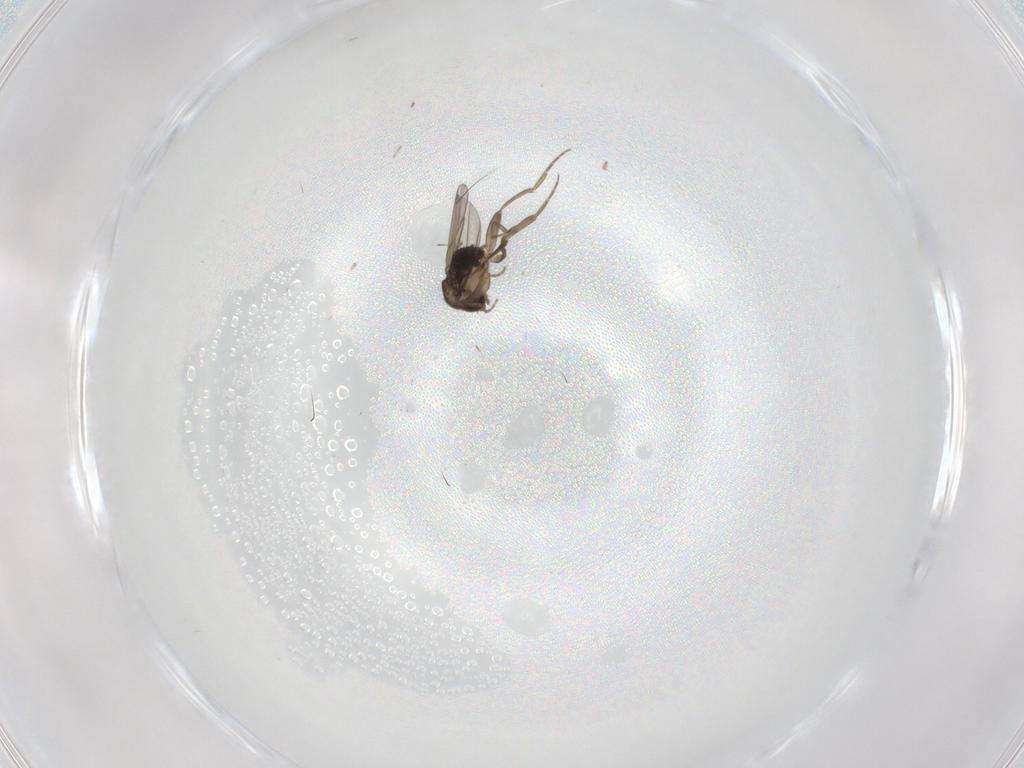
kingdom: Animalia
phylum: Arthropoda
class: Insecta
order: Diptera
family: Phoridae
